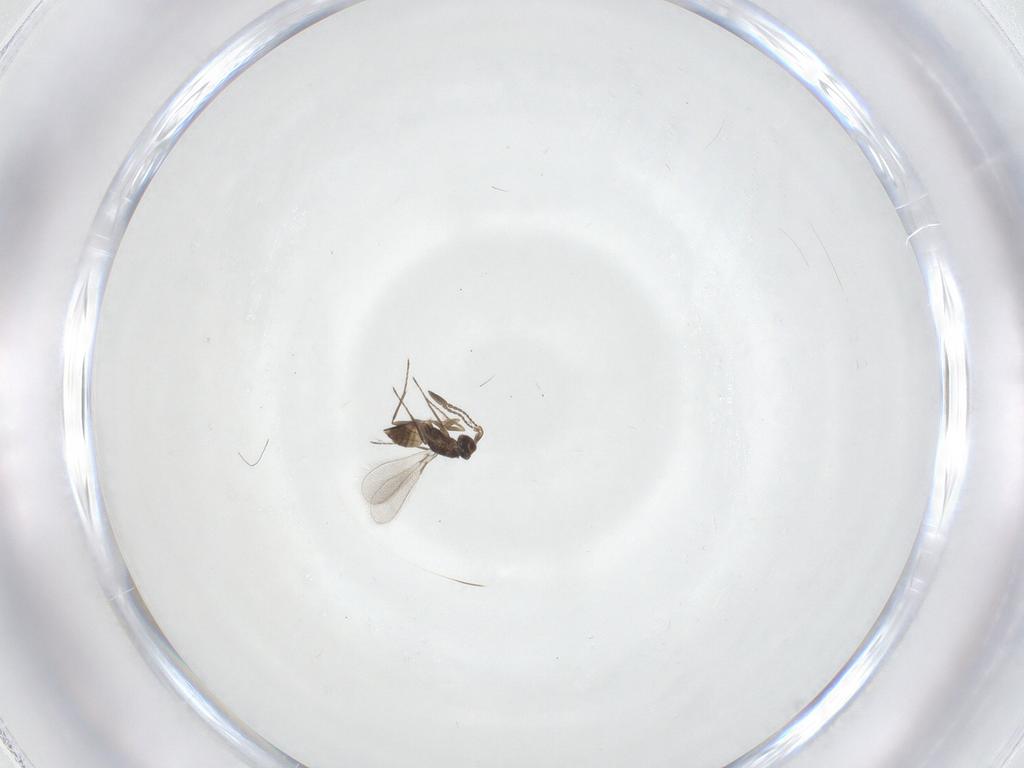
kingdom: Animalia
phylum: Arthropoda
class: Insecta
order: Hymenoptera
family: Mymaridae
